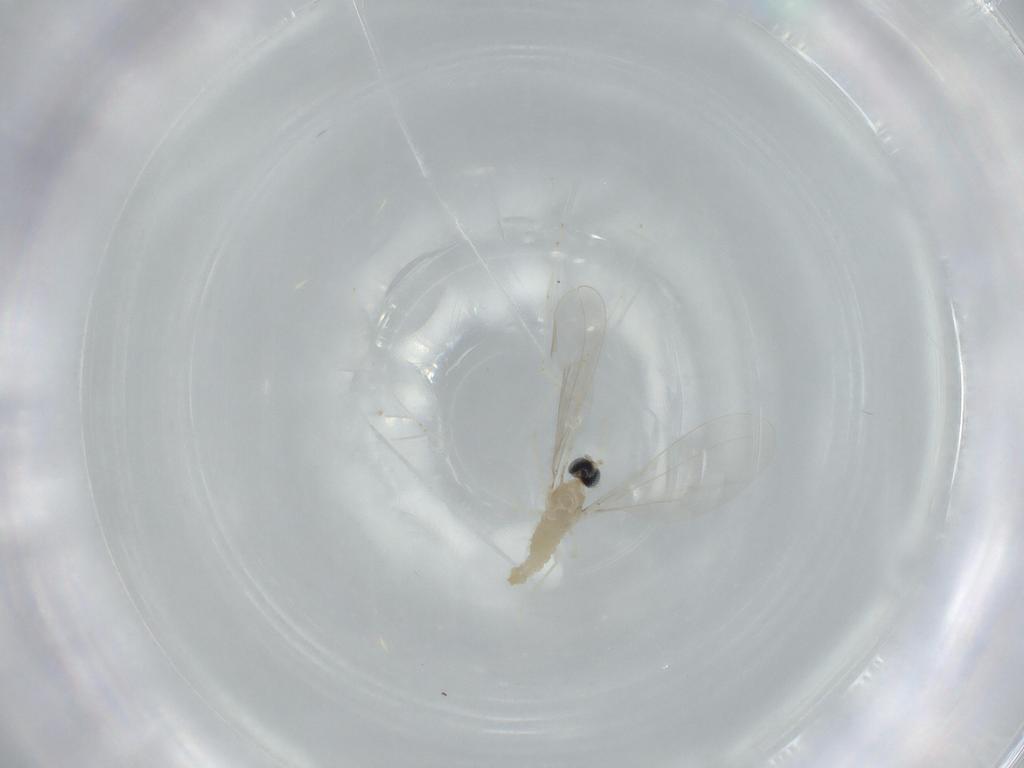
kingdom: Animalia
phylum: Arthropoda
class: Insecta
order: Diptera
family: Cecidomyiidae
